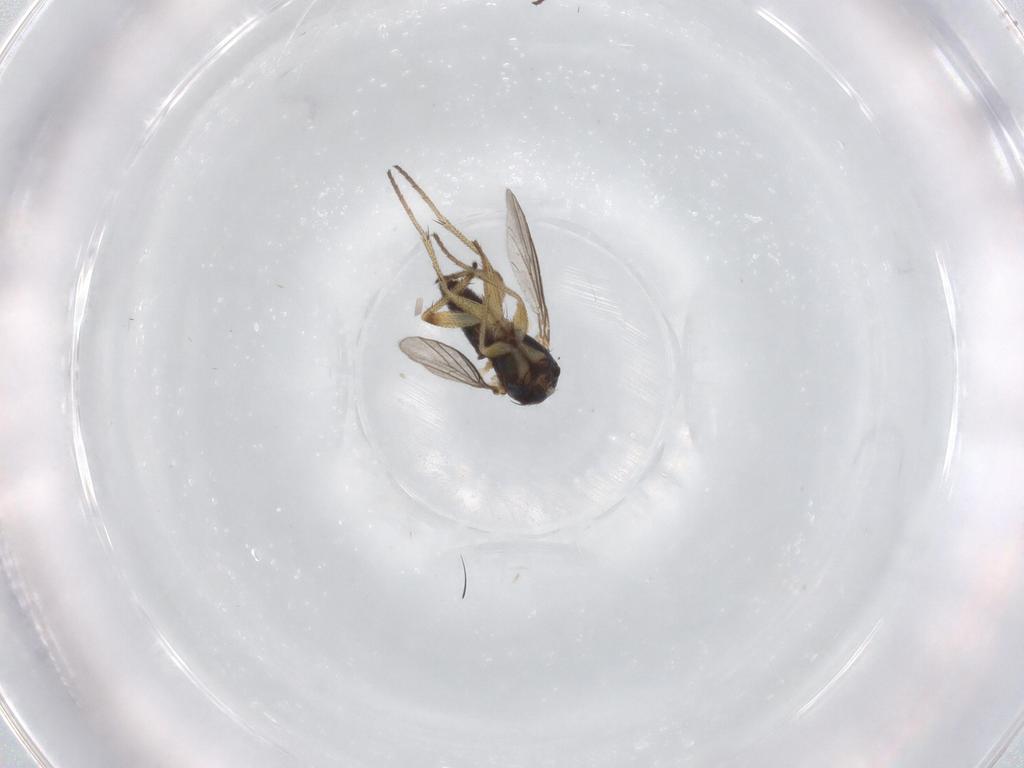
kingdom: Animalia
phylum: Arthropoda
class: Insecta
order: Diptera
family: Dolichopodidae
